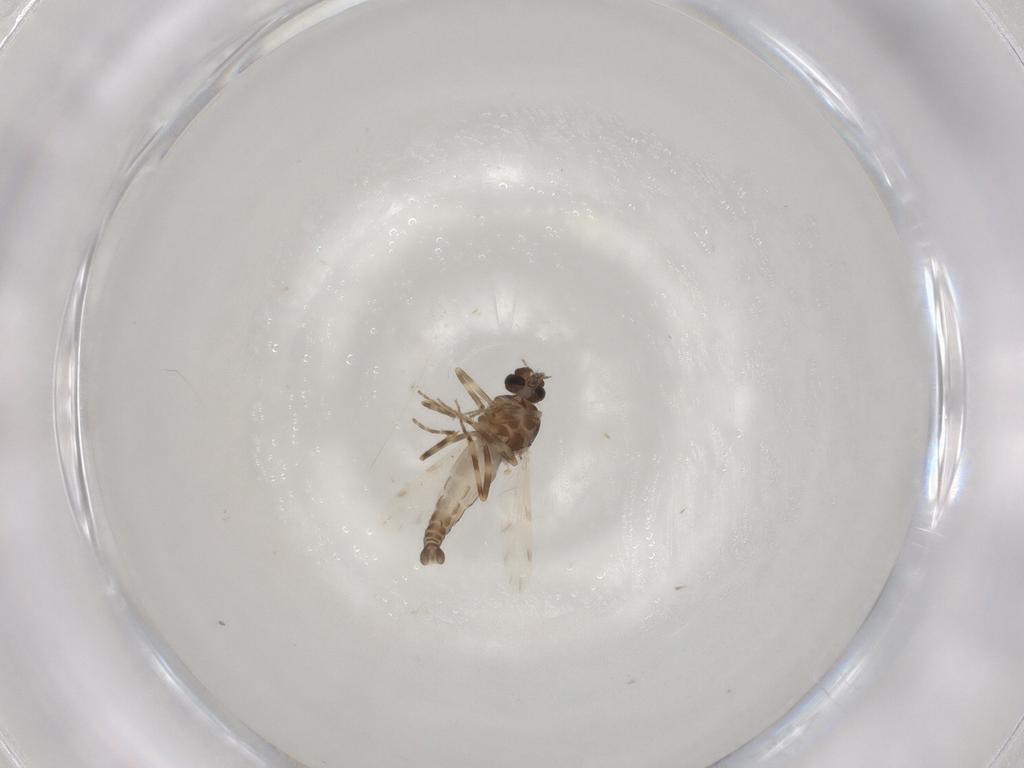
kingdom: Animalia
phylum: Arthropoda
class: Insecta
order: Diptera
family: Ceratopogonidae
